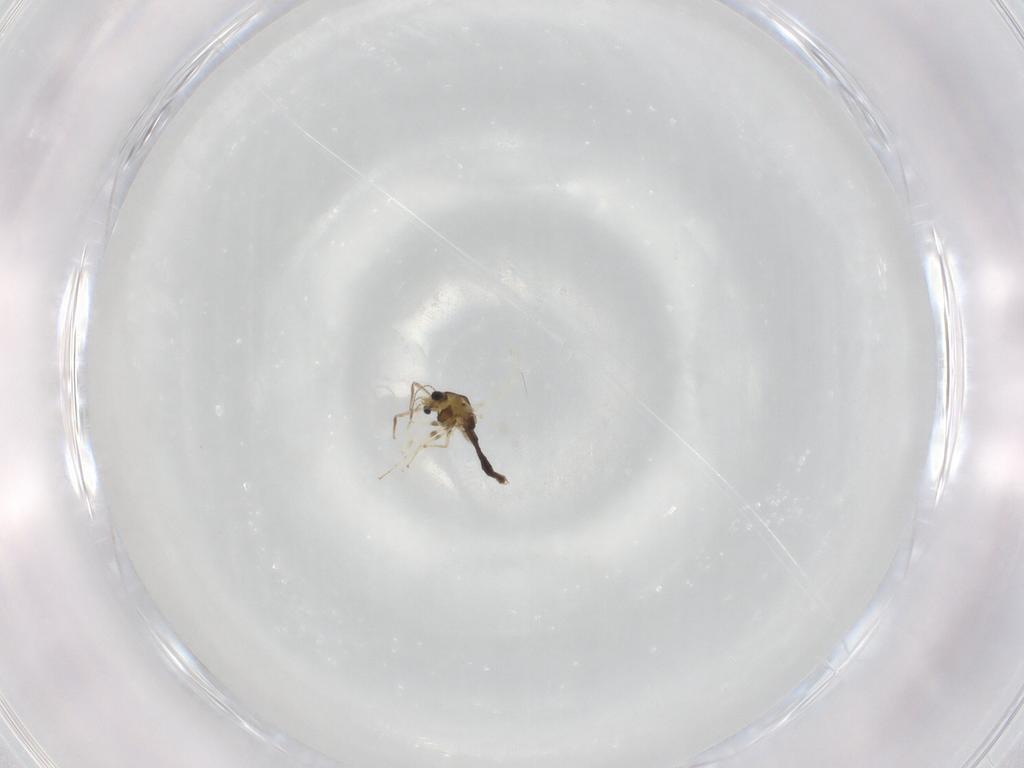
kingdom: Animalia
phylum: Arthropoda
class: Insecta
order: Diptera
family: Chironomidae
